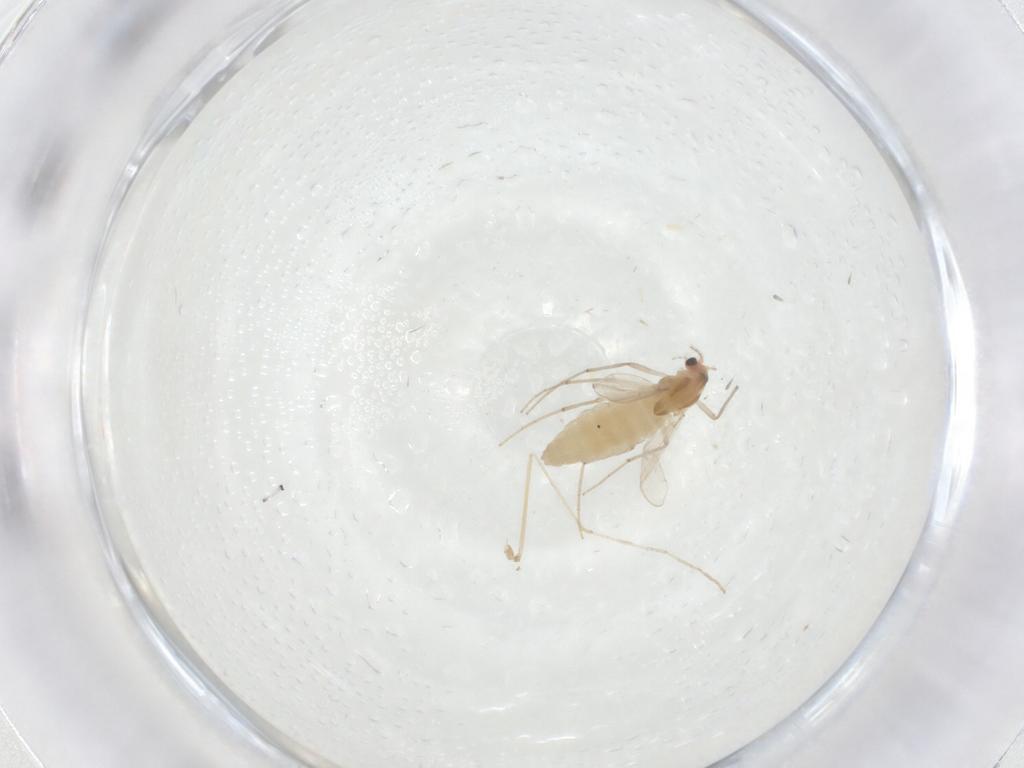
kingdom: Animalia
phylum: Arthropoda
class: Insecta
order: Diptera
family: Chironomidae
